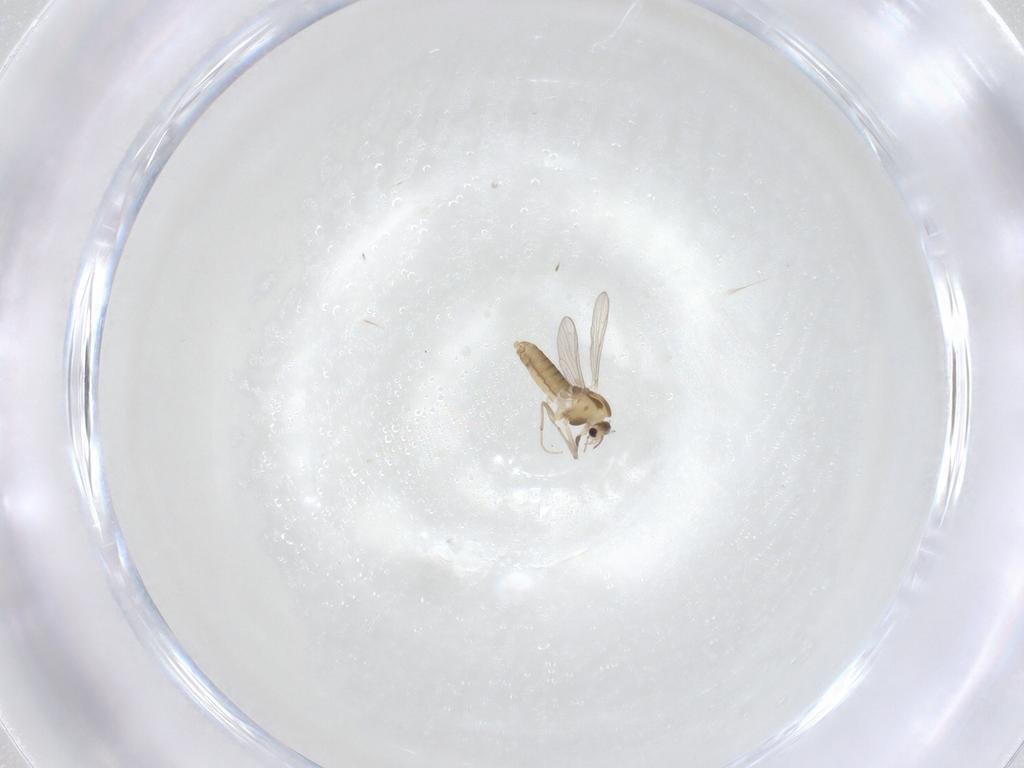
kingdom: Animalia
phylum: Arthropoda
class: Insecta
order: Diptera
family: Chironomidae
